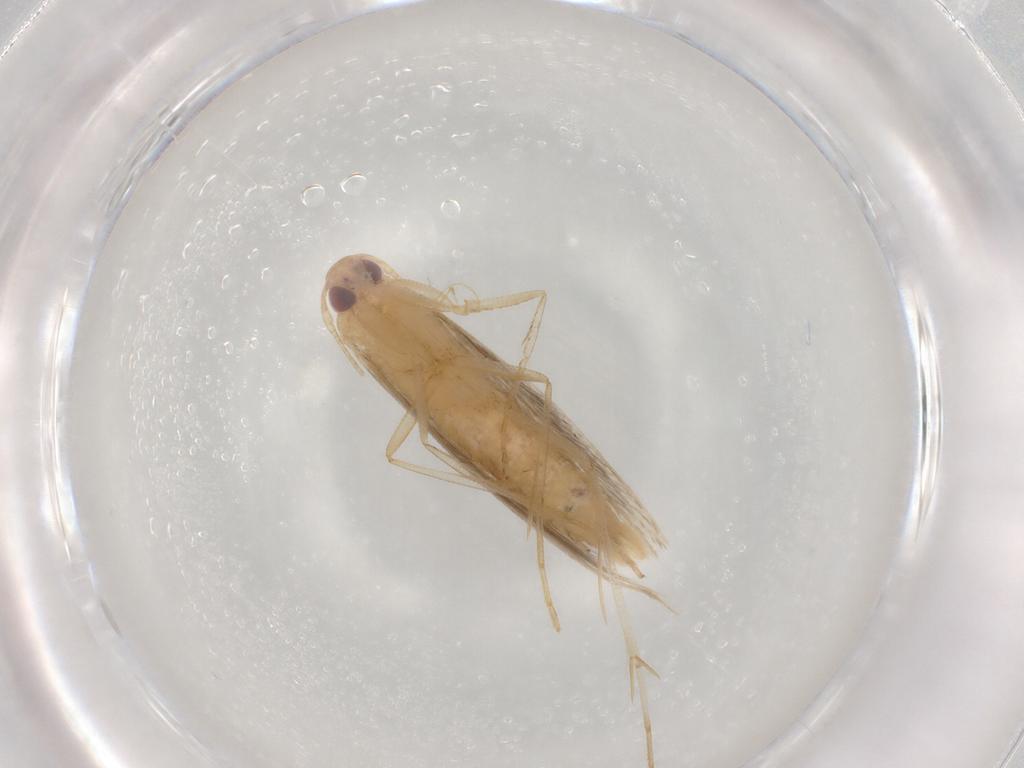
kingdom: Animalia
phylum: Arthropoda
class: Insecta
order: Lepidoptera
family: Cosmopterigidae
